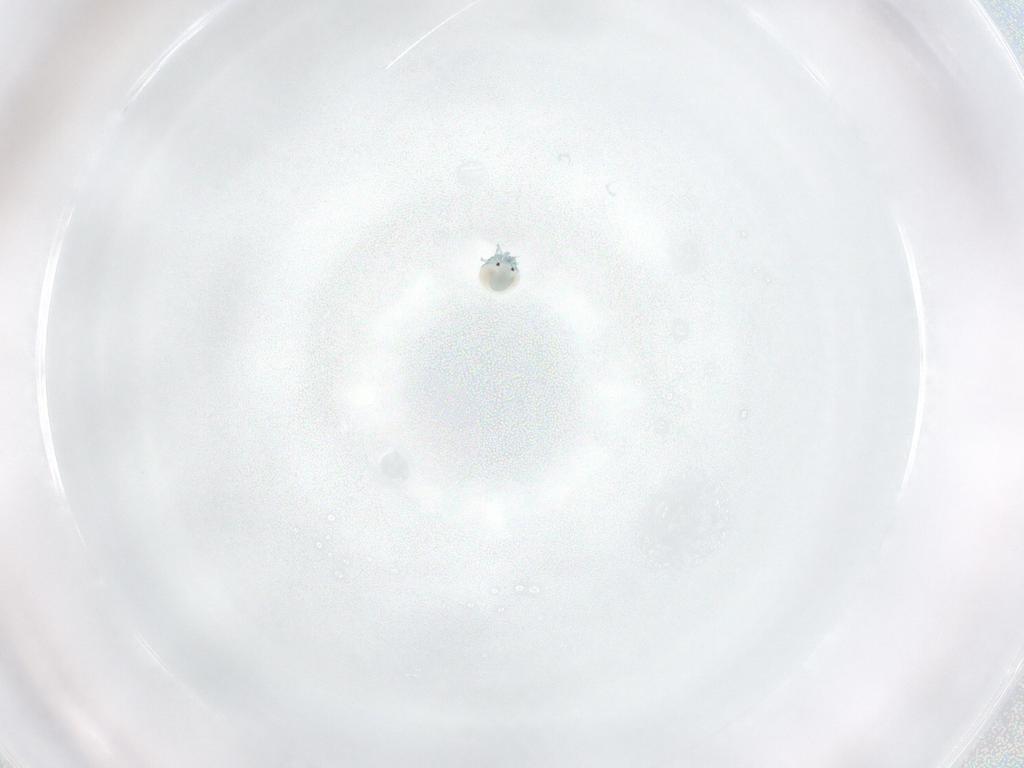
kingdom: Animalia
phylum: Arthropoda
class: Arachnida
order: Trombidiformes
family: Arrenuridae
